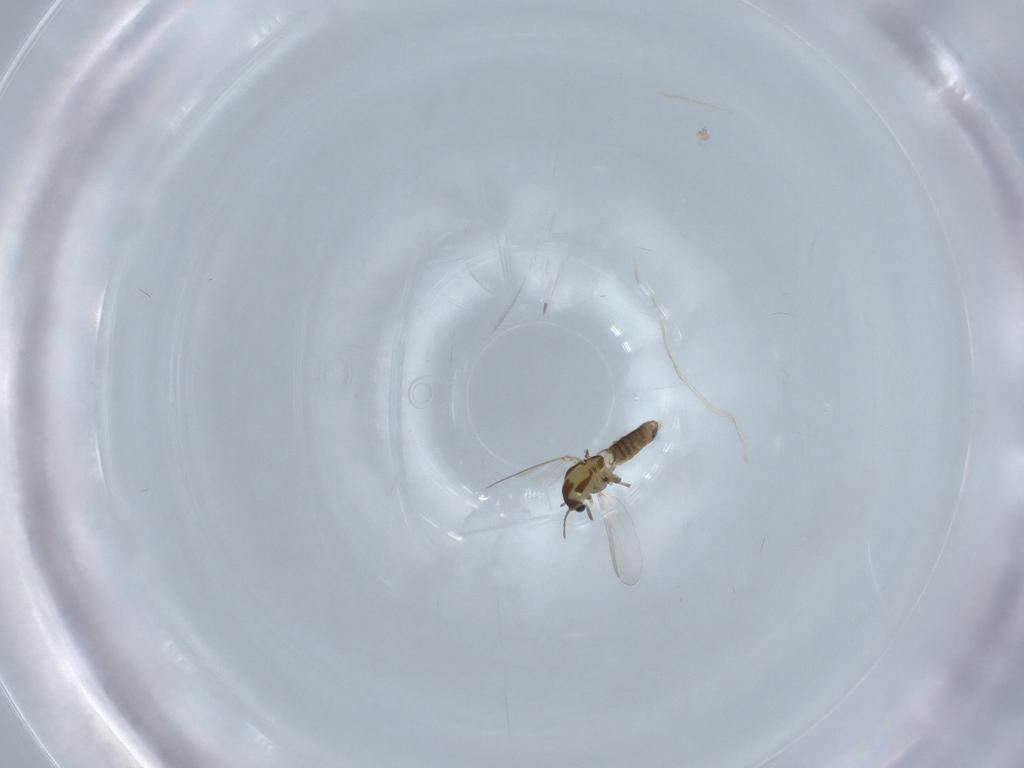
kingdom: Animalia
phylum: Arthropoda
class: Insecta
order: Diptera
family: Chironomidae
